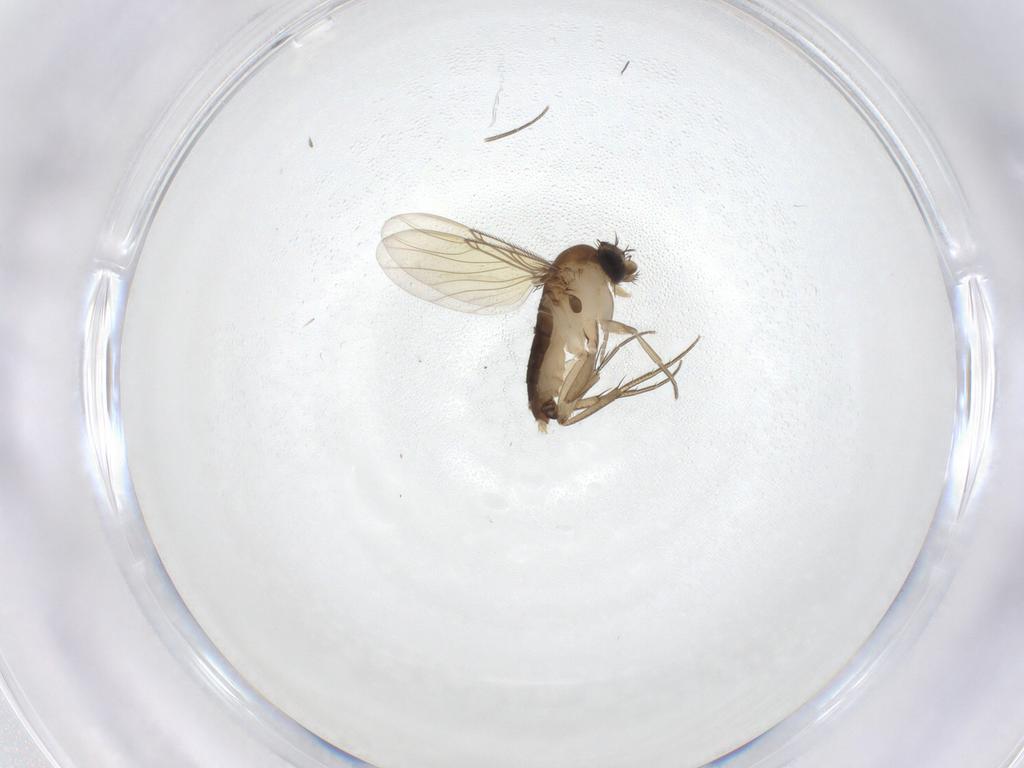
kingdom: Animalia
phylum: Arthropoda
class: Insecta
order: Diptera
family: Phoridae
